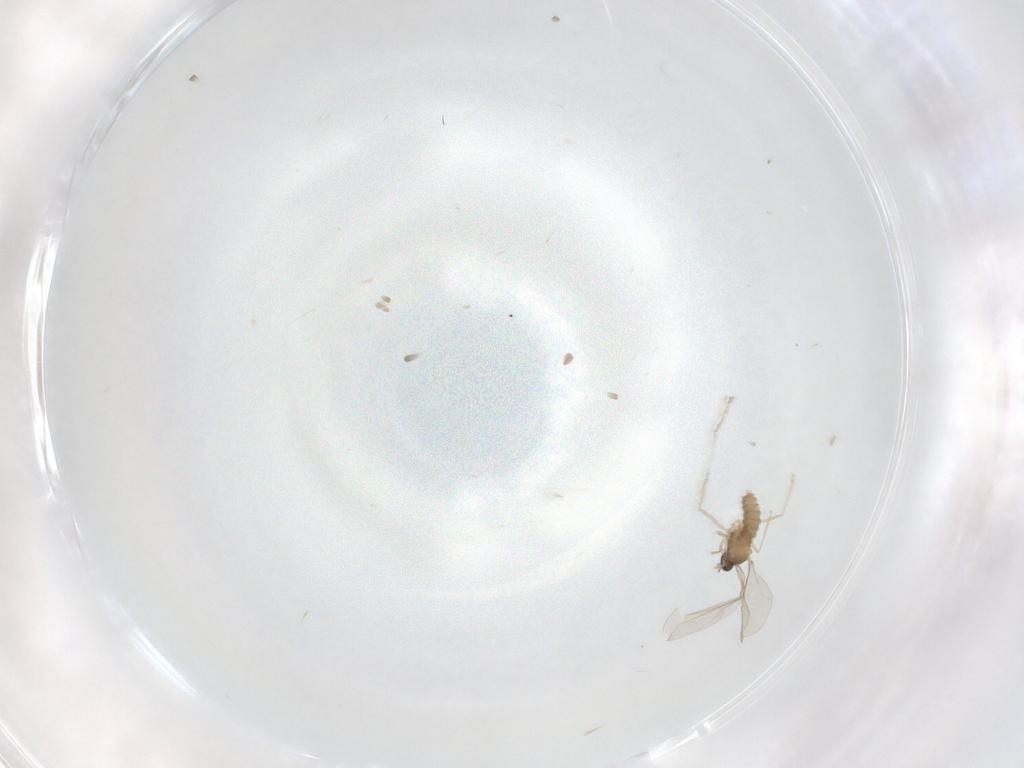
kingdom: Animalia
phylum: Arthropoda
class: Insecta
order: Diptera
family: Cecidomyiidae
